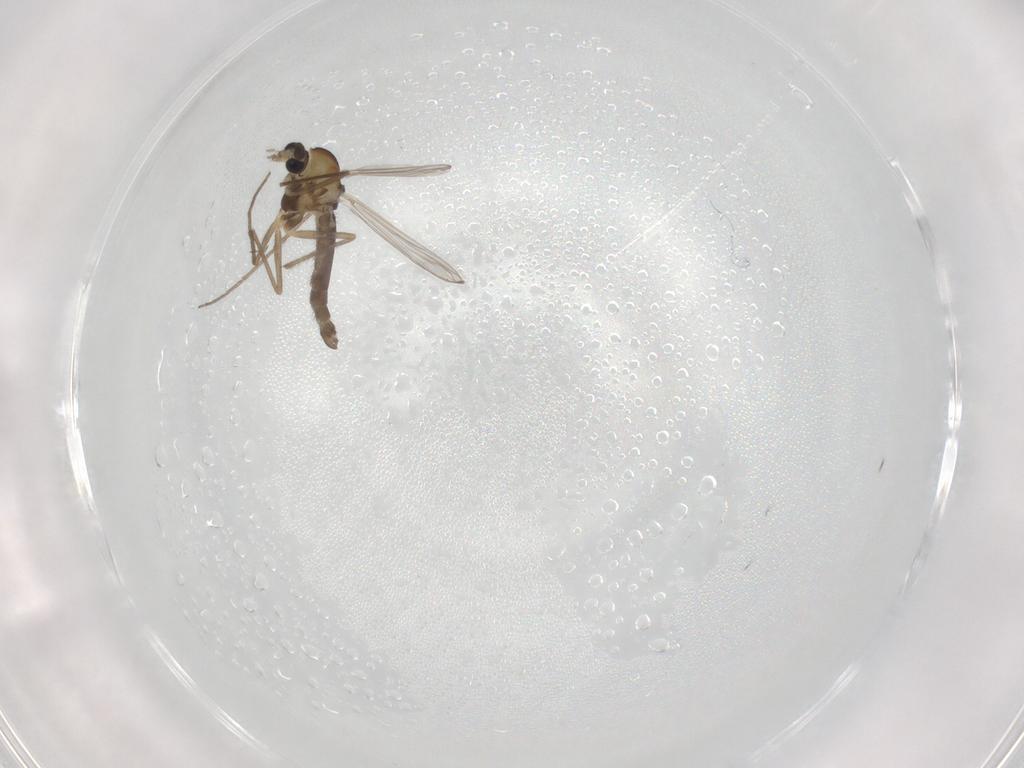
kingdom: Animalia
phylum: Arthropoda
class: Insecta
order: Diptera
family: Chironomidae
